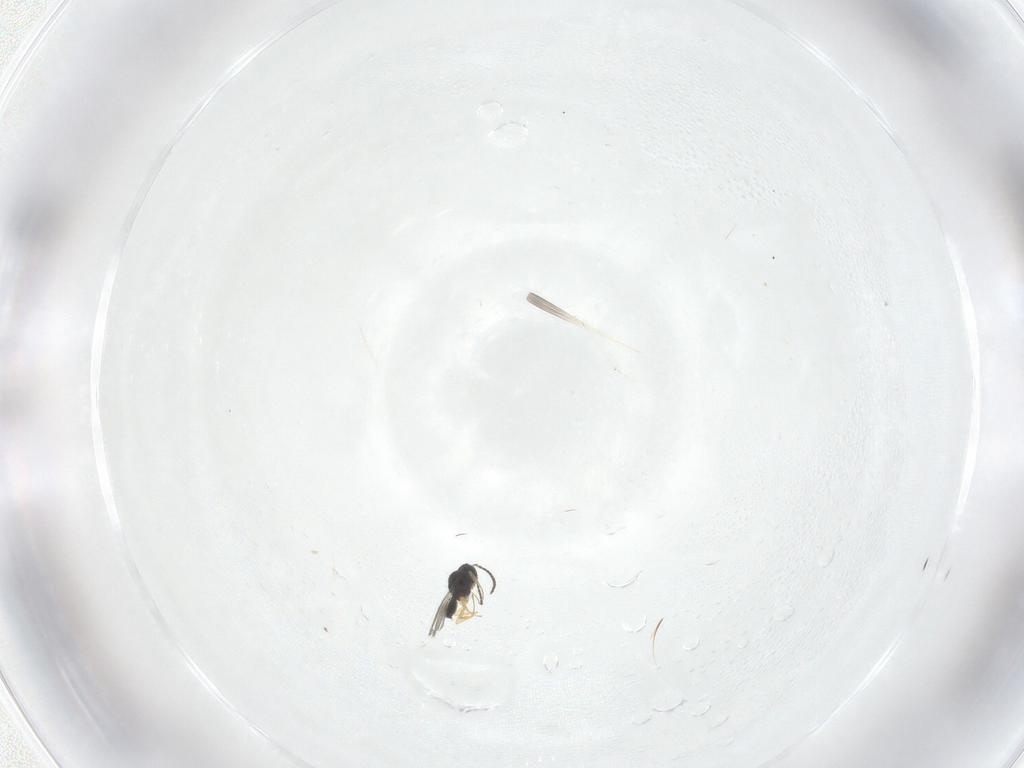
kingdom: Animalia
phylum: Arthropoda
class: Insecta
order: Hymenoptera
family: Scelionidae
